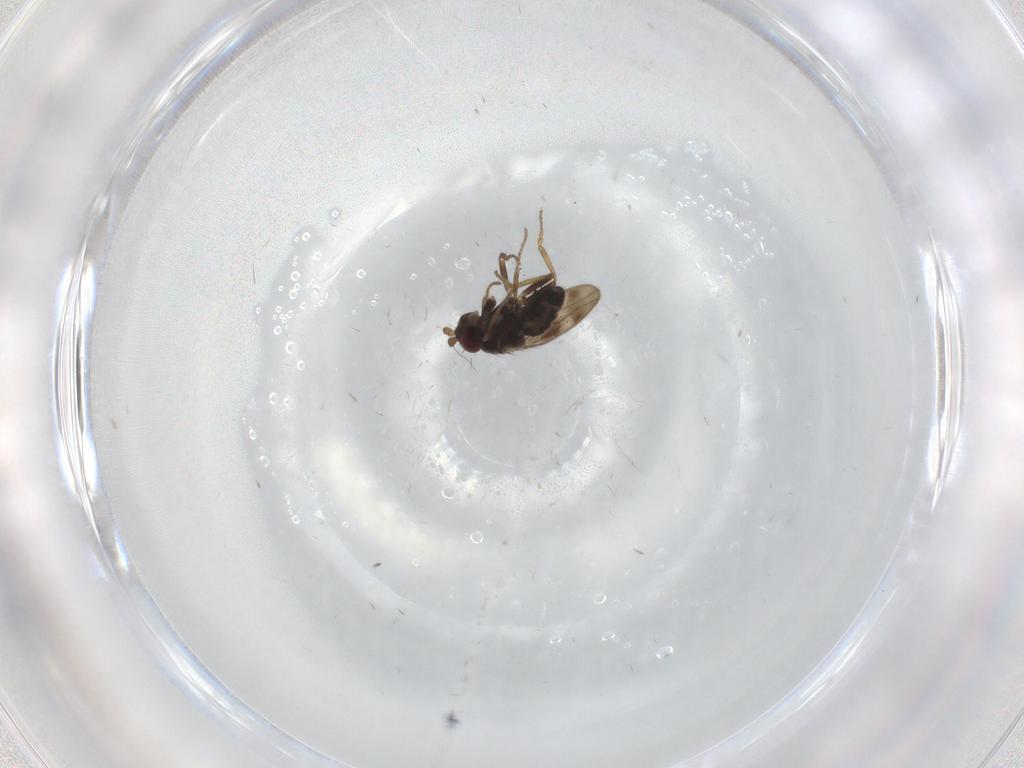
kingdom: Animalia
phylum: Arthropoda
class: Insecta
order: Diptera
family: Sphaeroceridae
